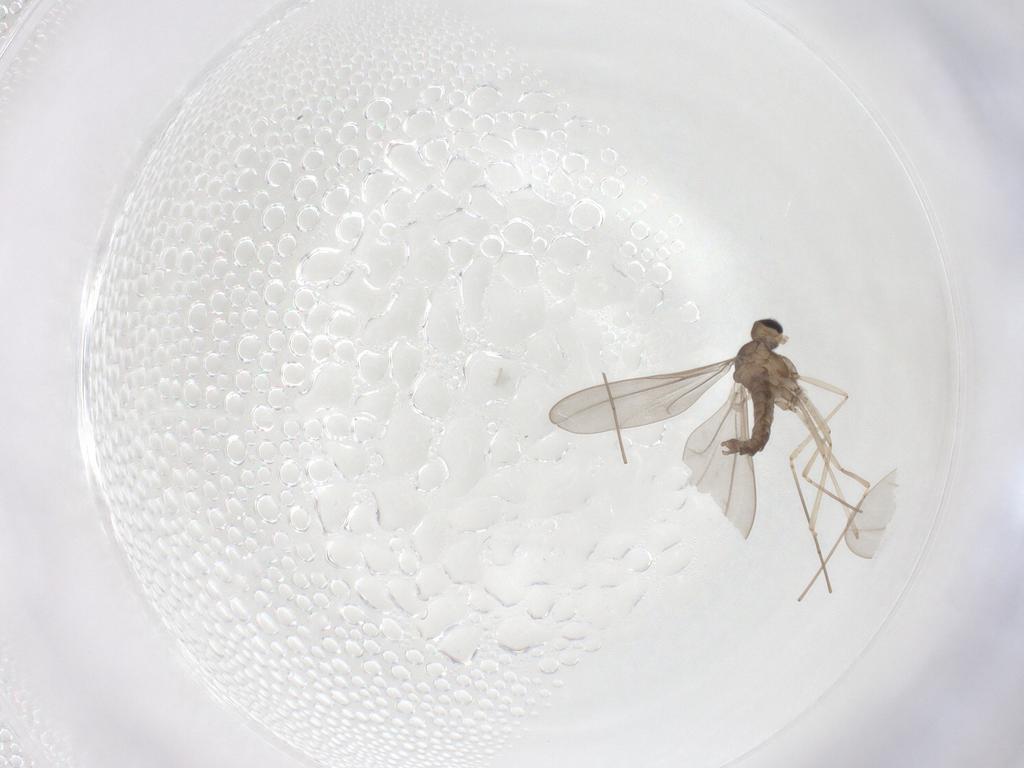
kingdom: Animalia
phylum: Arthropoda
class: Insecta
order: Diptera
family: Cecidomyiidae
